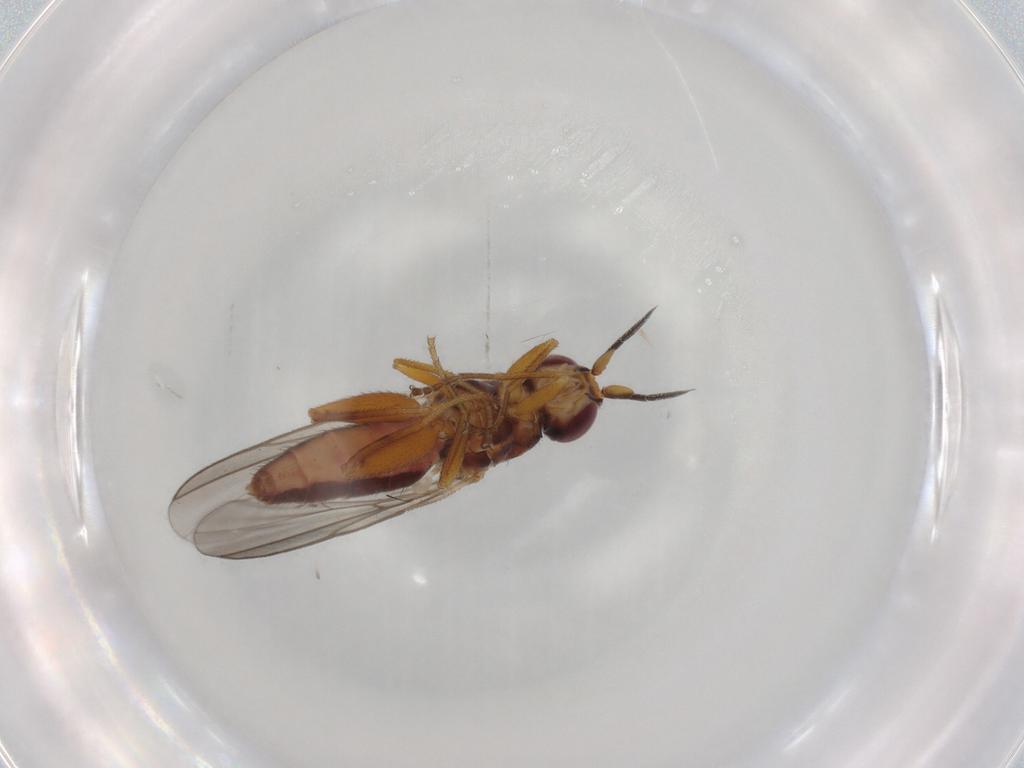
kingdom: Animalia
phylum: Arthropoda
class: Insecta
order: Diptera
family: Chloropidae
